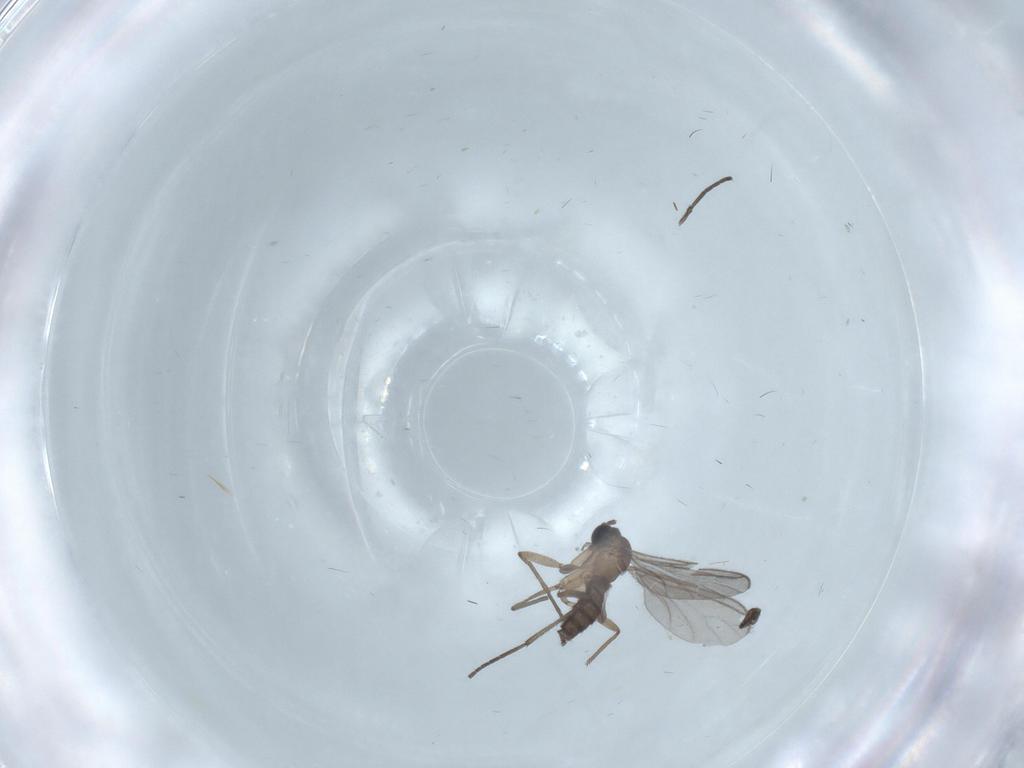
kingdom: Animalia
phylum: Arthropoda
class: Insecta
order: Diptera
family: Sciaridae
